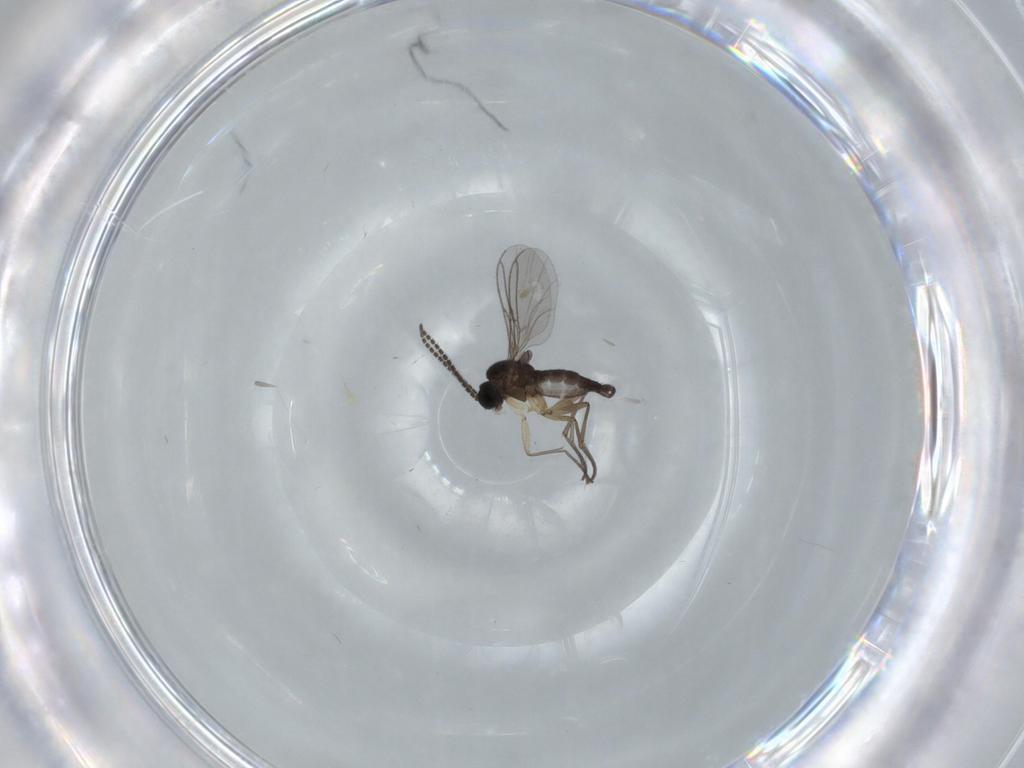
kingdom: Animalia
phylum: Arthropoda
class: Insecta
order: Diptera
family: Sciaridae
